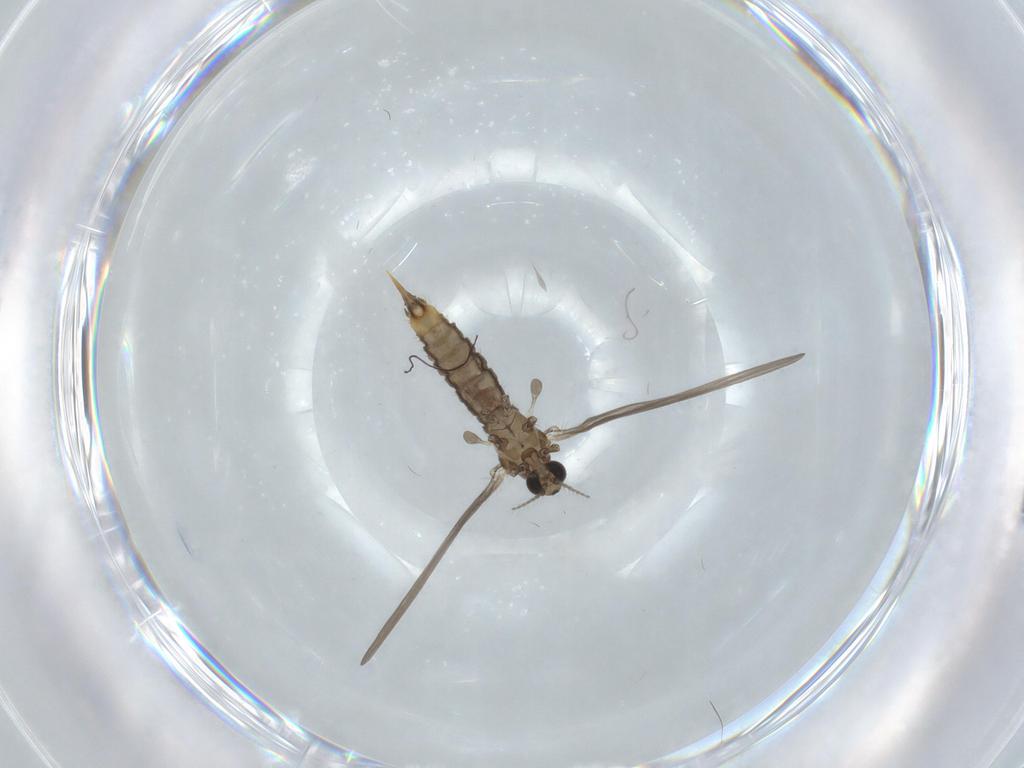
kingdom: Animalia
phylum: Arthropoda
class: Insecta
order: Diptera
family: Limoniidae
